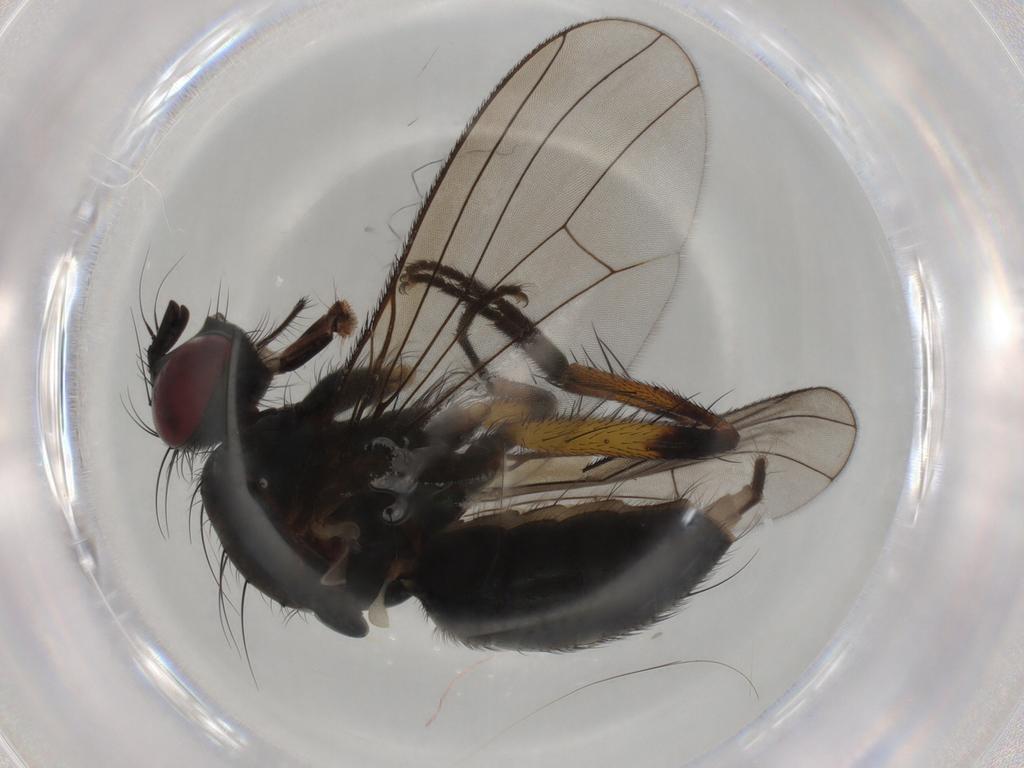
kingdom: Animalia
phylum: Arthropoda
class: Insecta
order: Diptera
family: Muscidae
